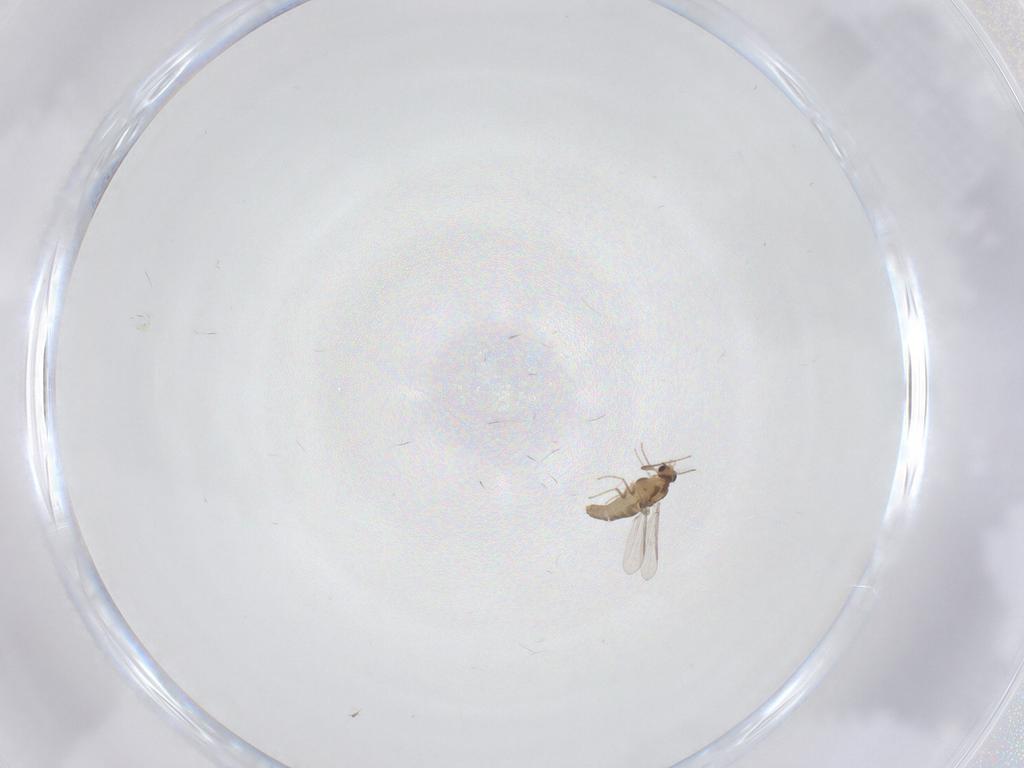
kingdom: Animalia
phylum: Arthropoda
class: Insecta
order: Diptera
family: Chironomidae
